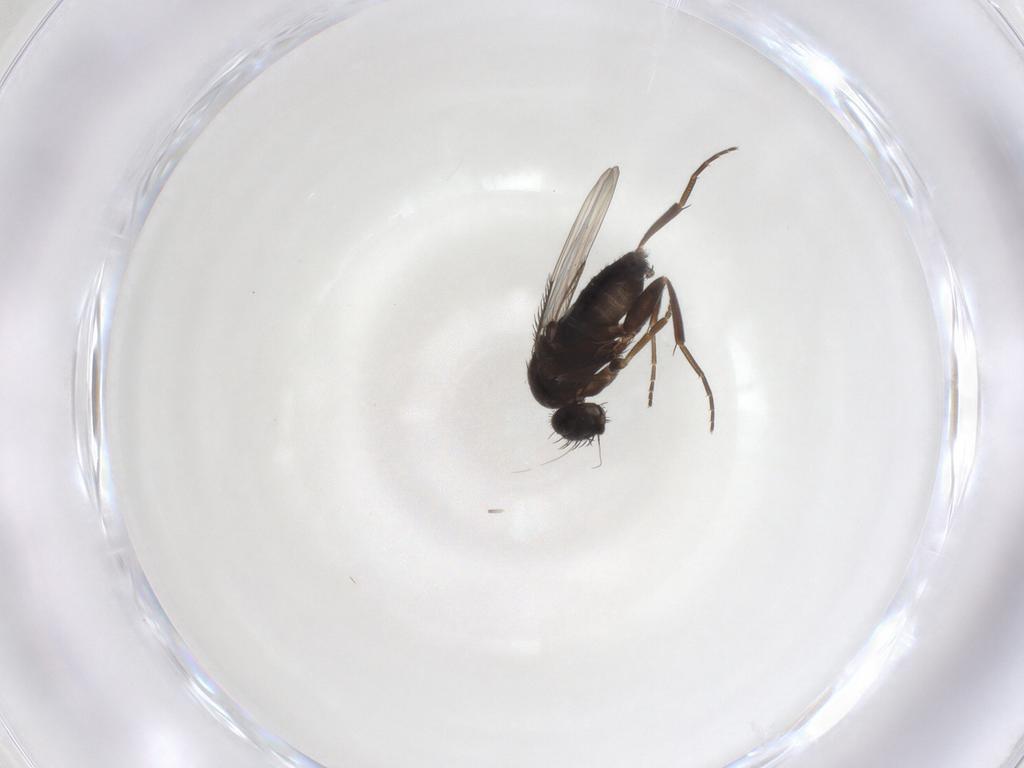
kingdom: Animalia
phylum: Arthropoda
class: Insecta
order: Diptera
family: Phoridae
